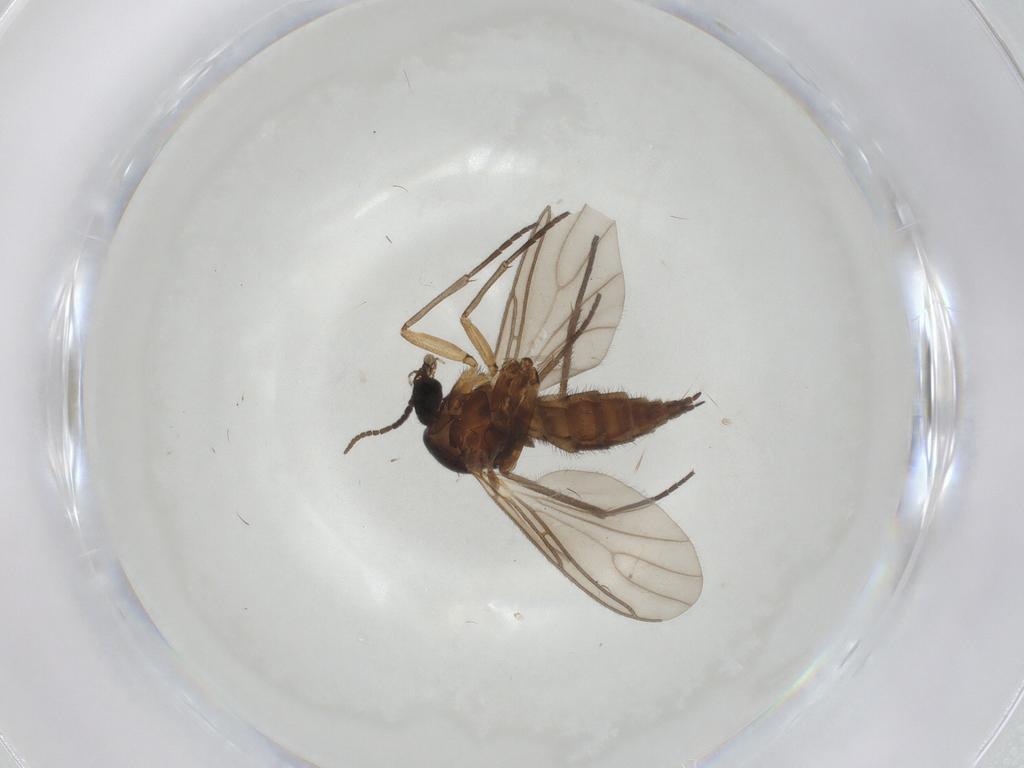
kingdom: Animalia
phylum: Arthropoda
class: Insecta
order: Diptera
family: Sciaridae
